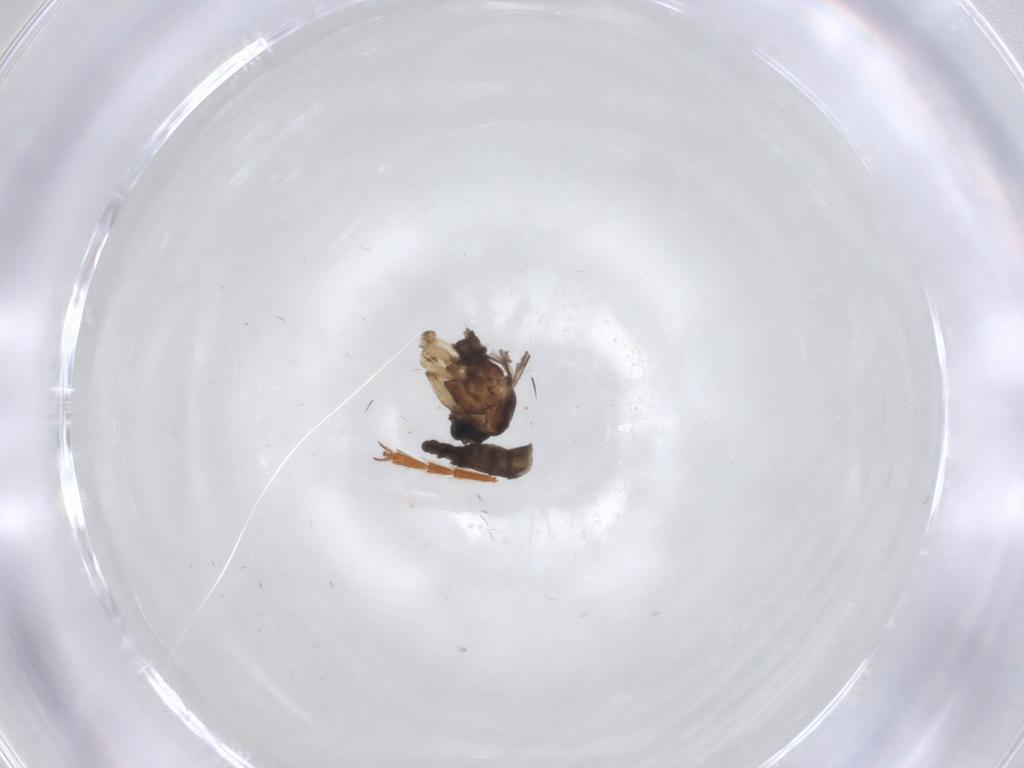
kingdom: Animalia
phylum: Arthropoda
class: Insecta
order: Diptera
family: Sciaridae
